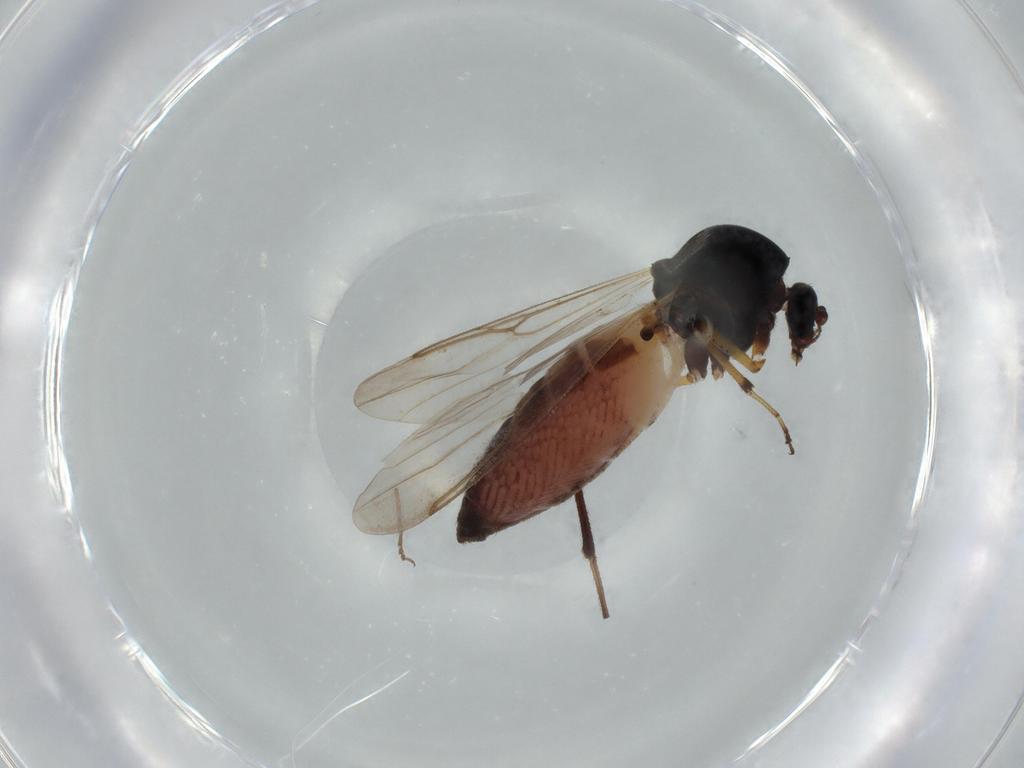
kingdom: Animalia
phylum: Arthropoda
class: Insecta
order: Diptera
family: Ceratopogonidae
